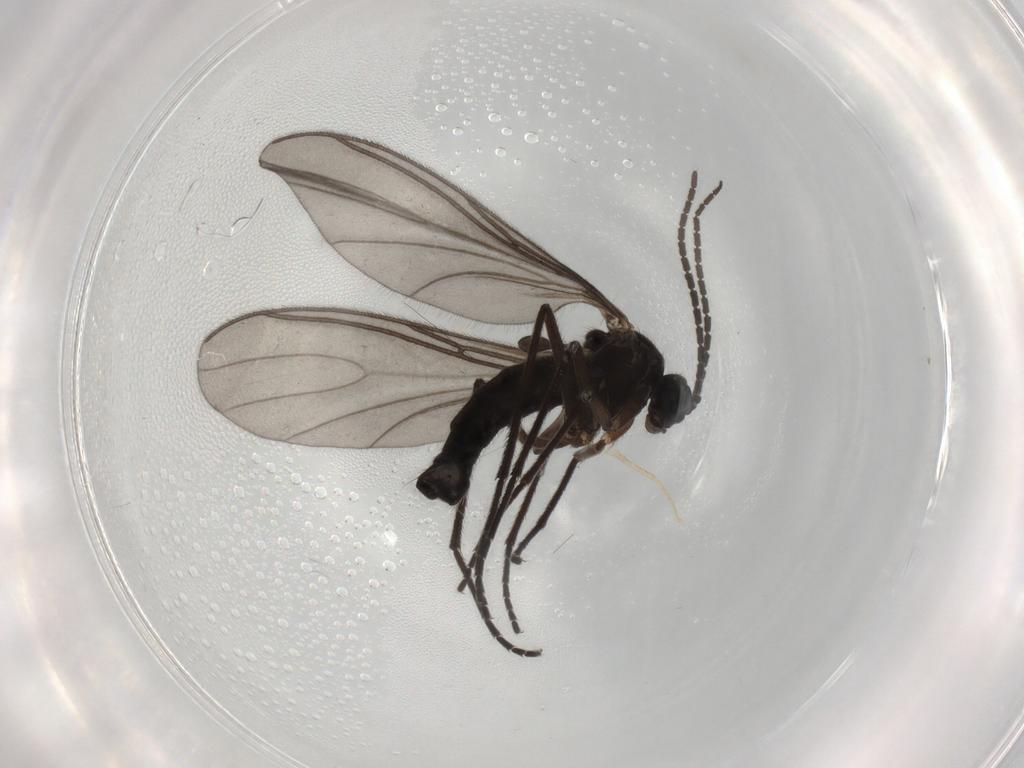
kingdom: Animalia
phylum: Arthropoda
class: Insecta
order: Diptera
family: Sciaridae
